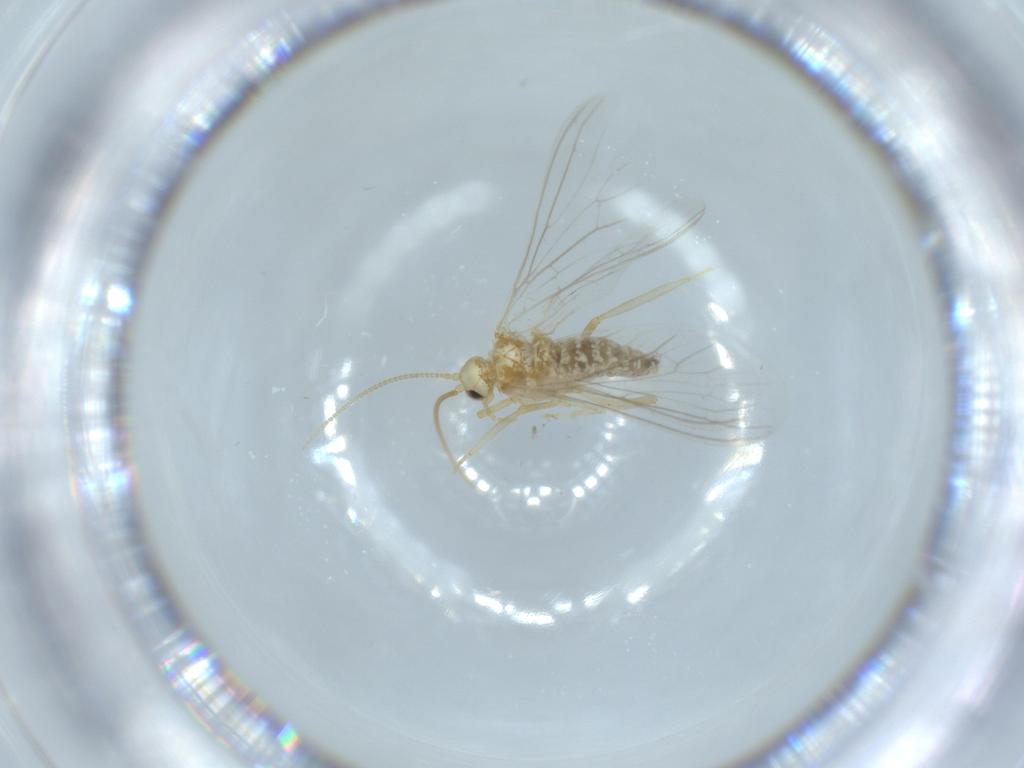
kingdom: Animalia
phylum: Arthropoda
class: Insecta
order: Neuroptera
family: Coniopterygidae
